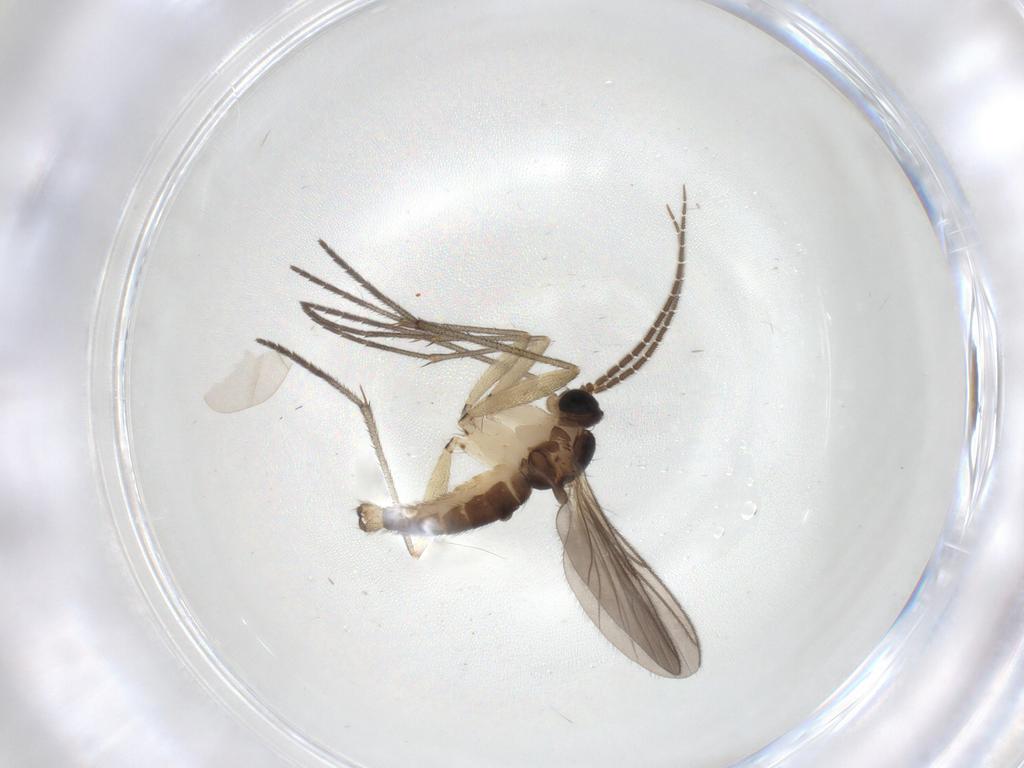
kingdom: Animalia
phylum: Arthropoda
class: Insecta
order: Diptera
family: Sciaridae
